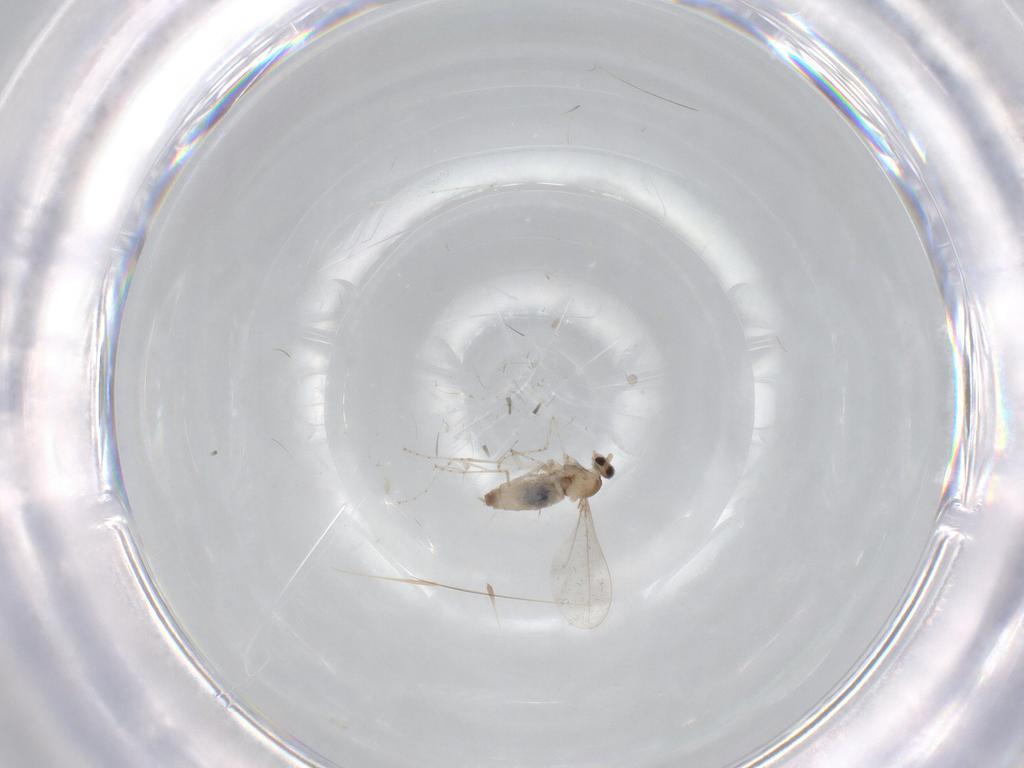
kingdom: Animalia
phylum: Arthropoda
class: Insecta
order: Diptera
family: Cecidomyiidae
